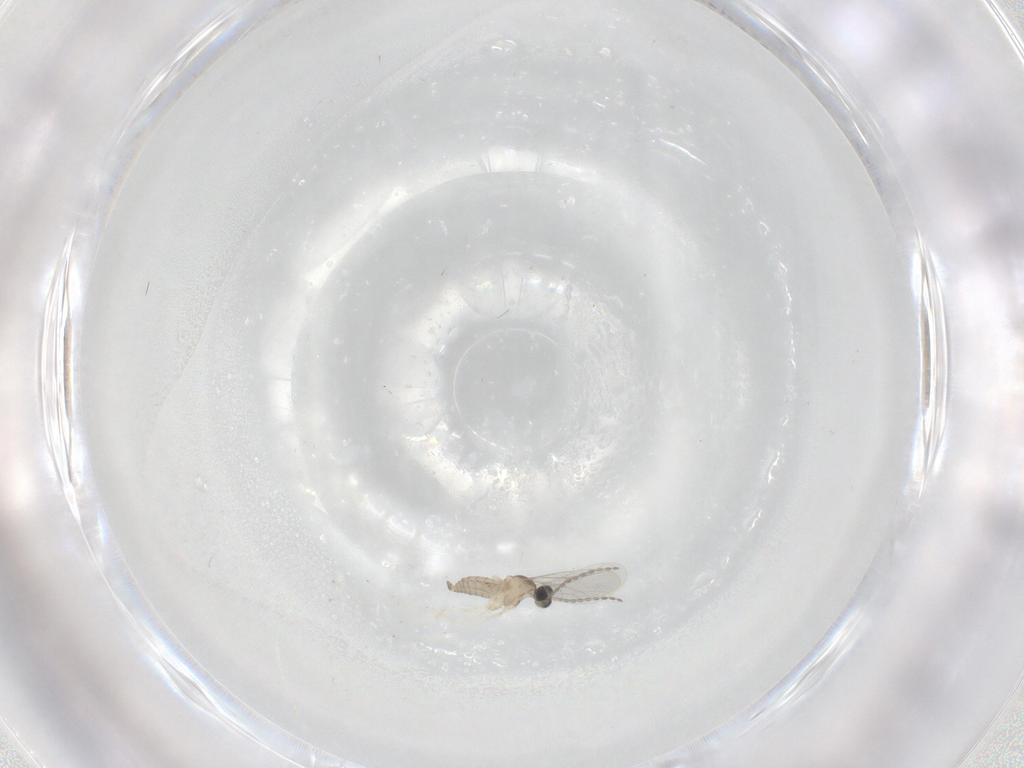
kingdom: Animalia
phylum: Arthropoda
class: Insecta
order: Diptera
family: Cecidomyiidae
